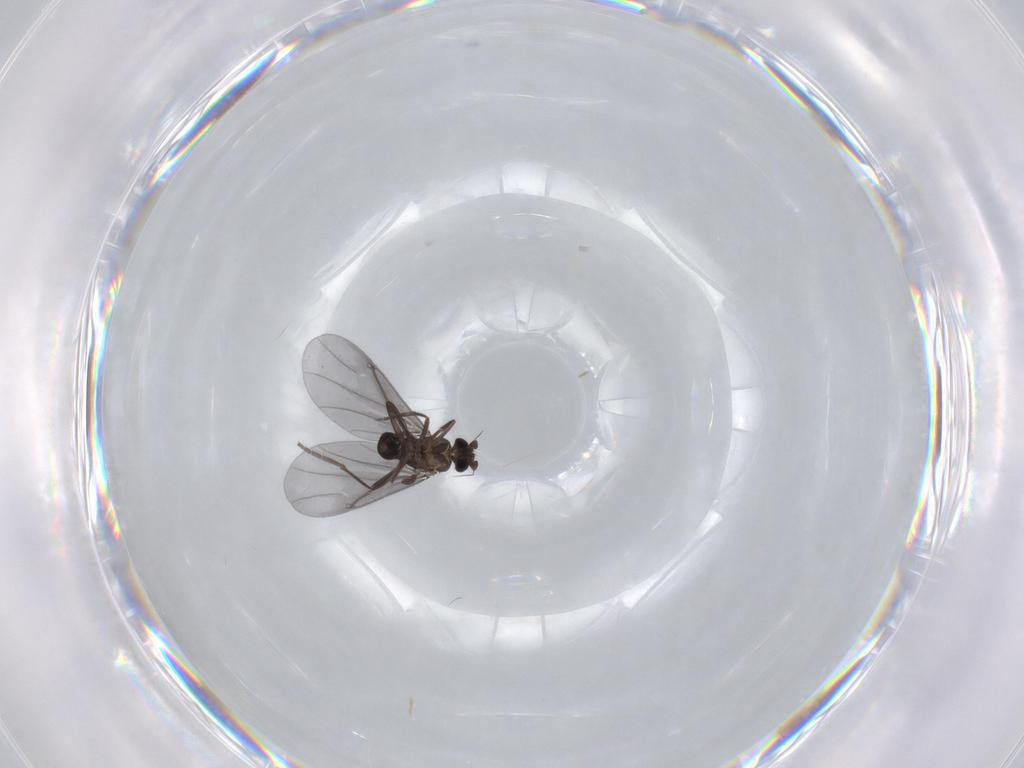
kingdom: Animalia
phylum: Arthropoda
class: Insecta
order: Diptera
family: Cecidomyiidae
